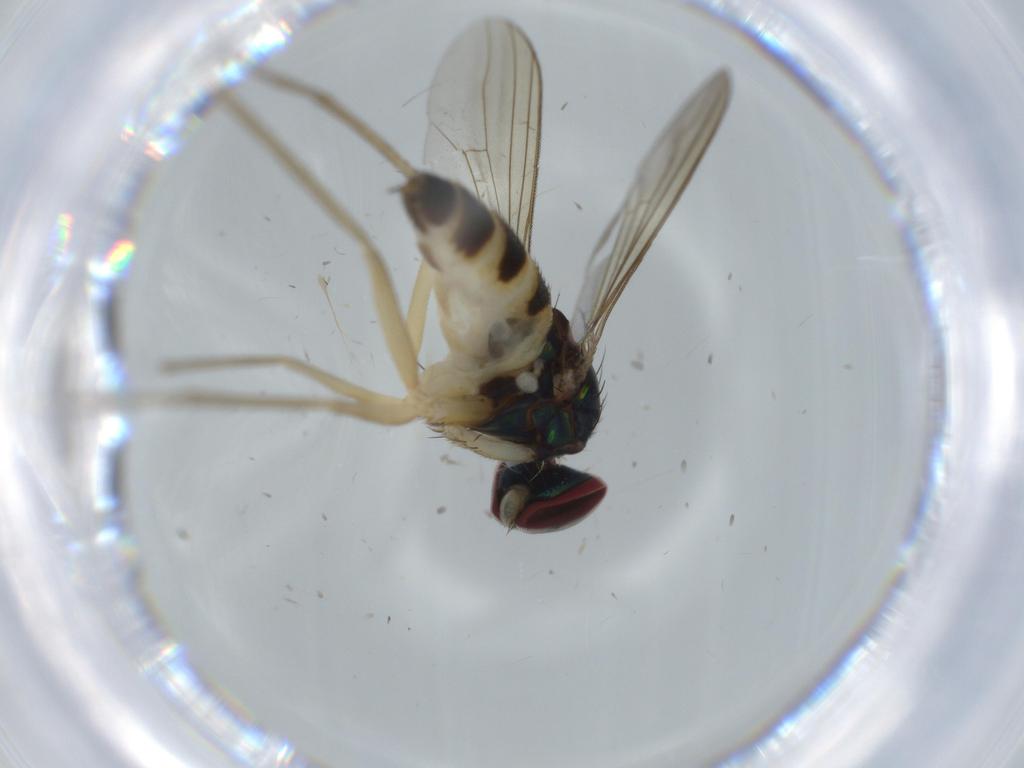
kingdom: Animalia
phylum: Arthropoda
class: Insecta
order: Diptera
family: Dolichopodidae
